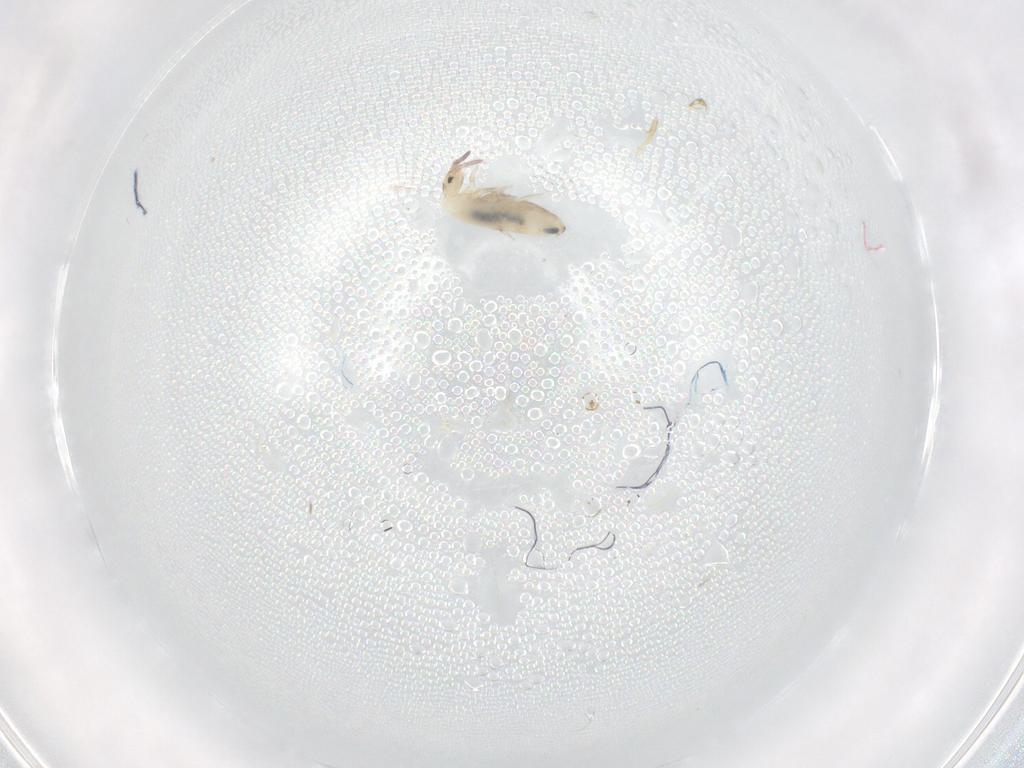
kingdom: Animalia
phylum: Arthropoda
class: Collembola
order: Entomobryomorpha
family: Entomobryidae
